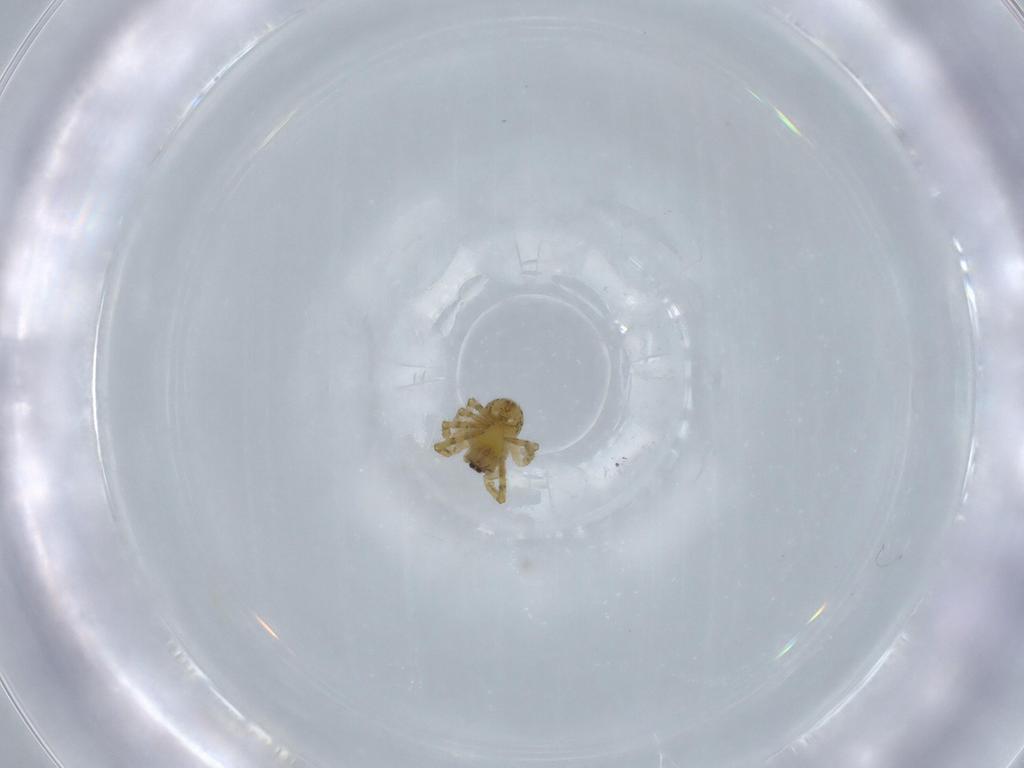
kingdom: Animalia
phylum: Arthropoda
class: Arachnida
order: Araneae
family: Theridiidae
